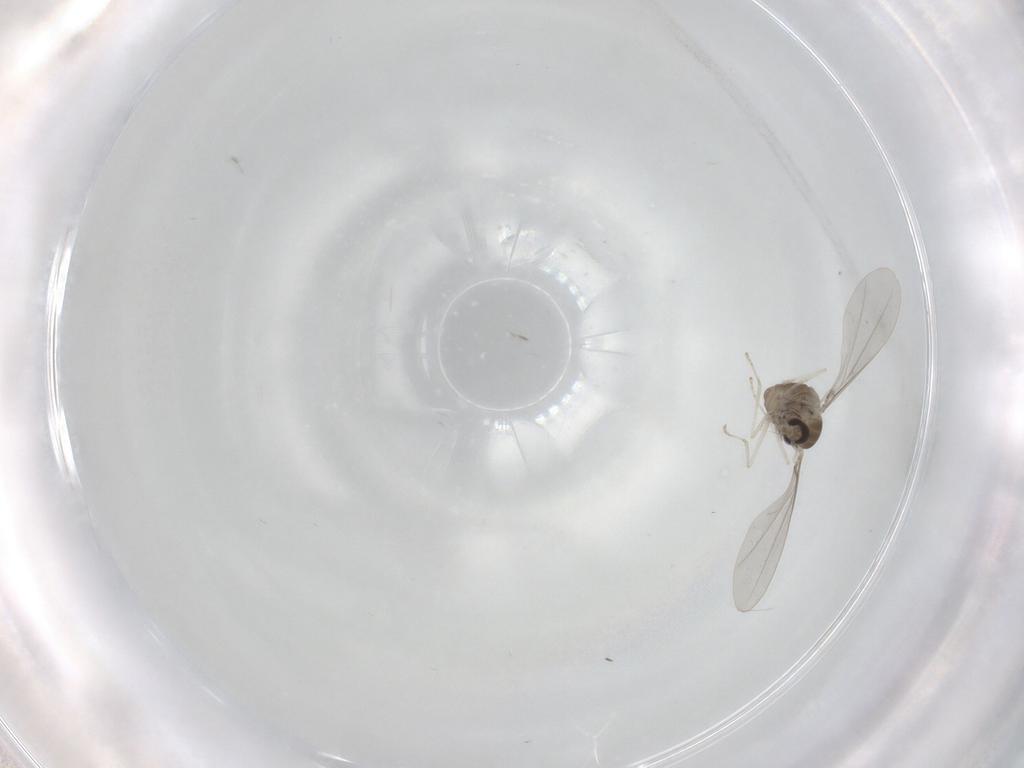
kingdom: Animalia
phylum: Arthropoda
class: Insecta
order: Diptera
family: Cecidomyiidae
